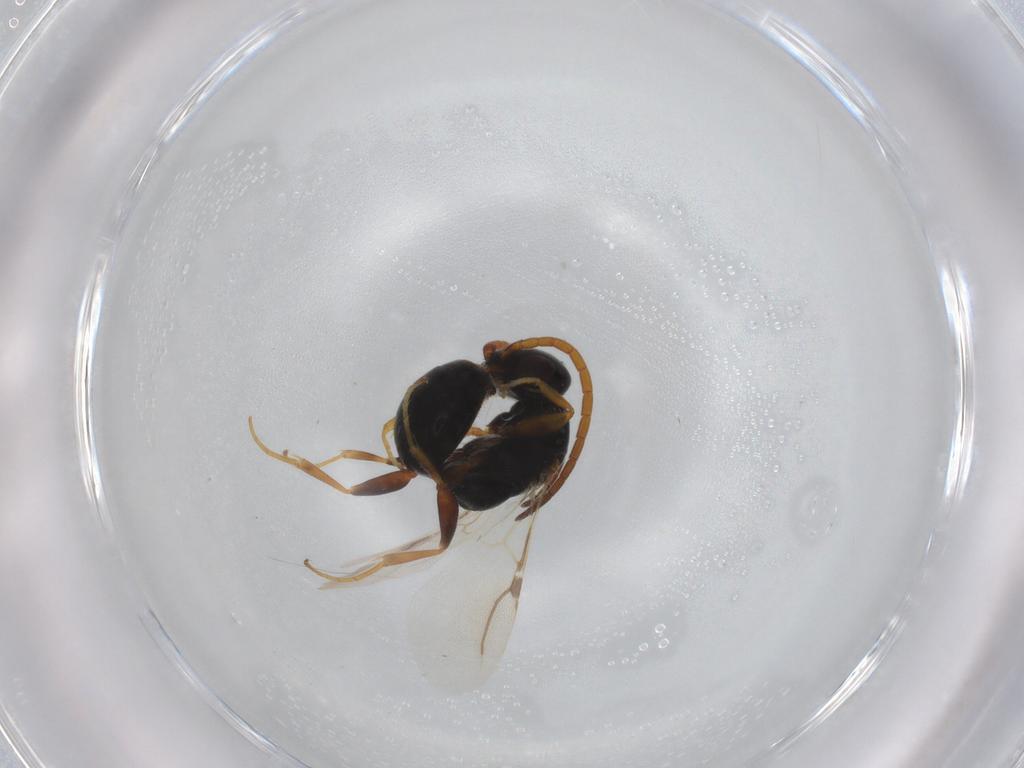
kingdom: Animalia
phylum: Arthropoda
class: Insecta
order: Hymenoptera
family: Bethylidae
